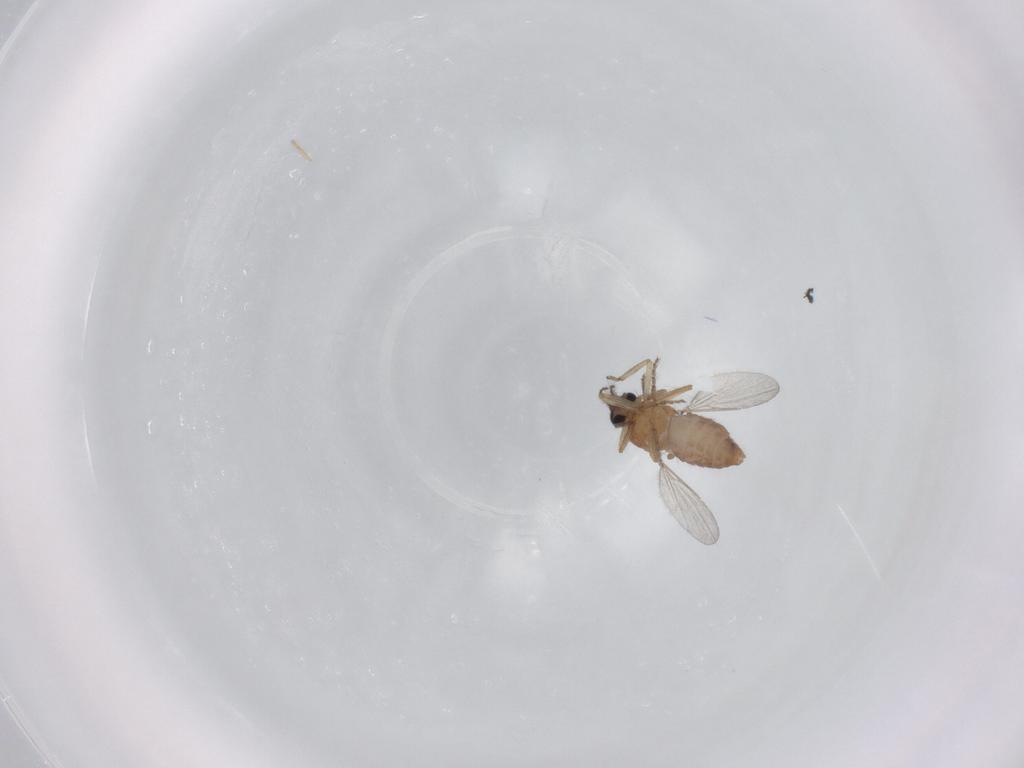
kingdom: Animalia
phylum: Arthropoda
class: Insecta
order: Diptera
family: Ceratopogonidae
